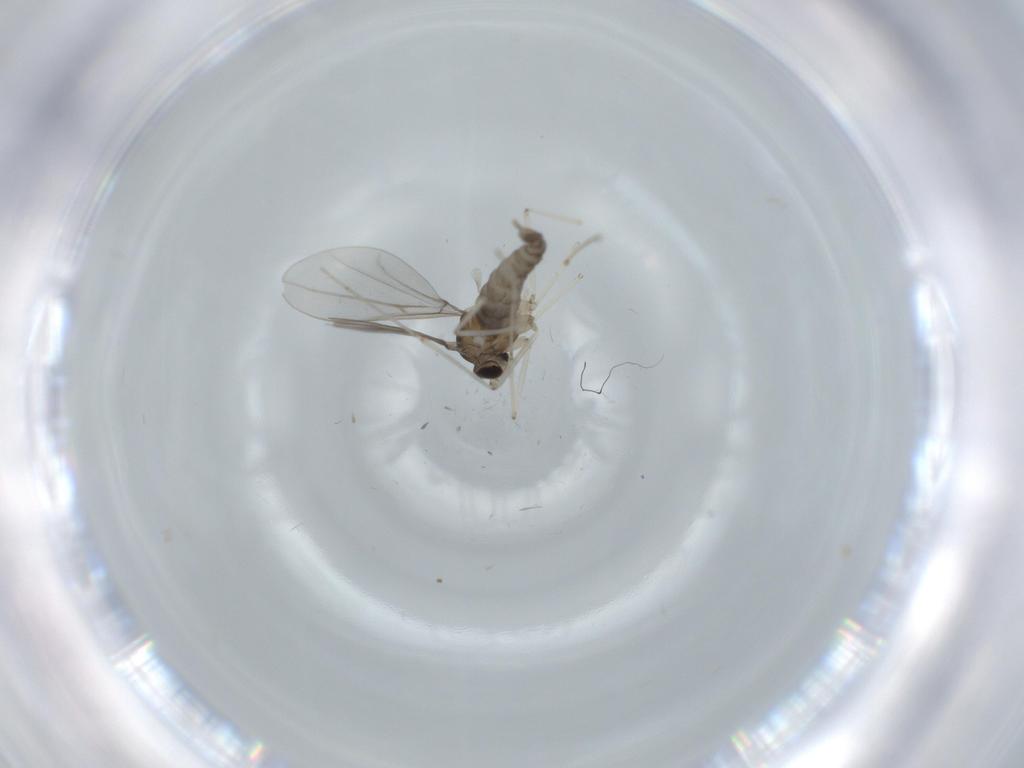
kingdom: Animalia
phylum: Arthropoda
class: Insecta
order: Diptera
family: Cecidomyiidae
